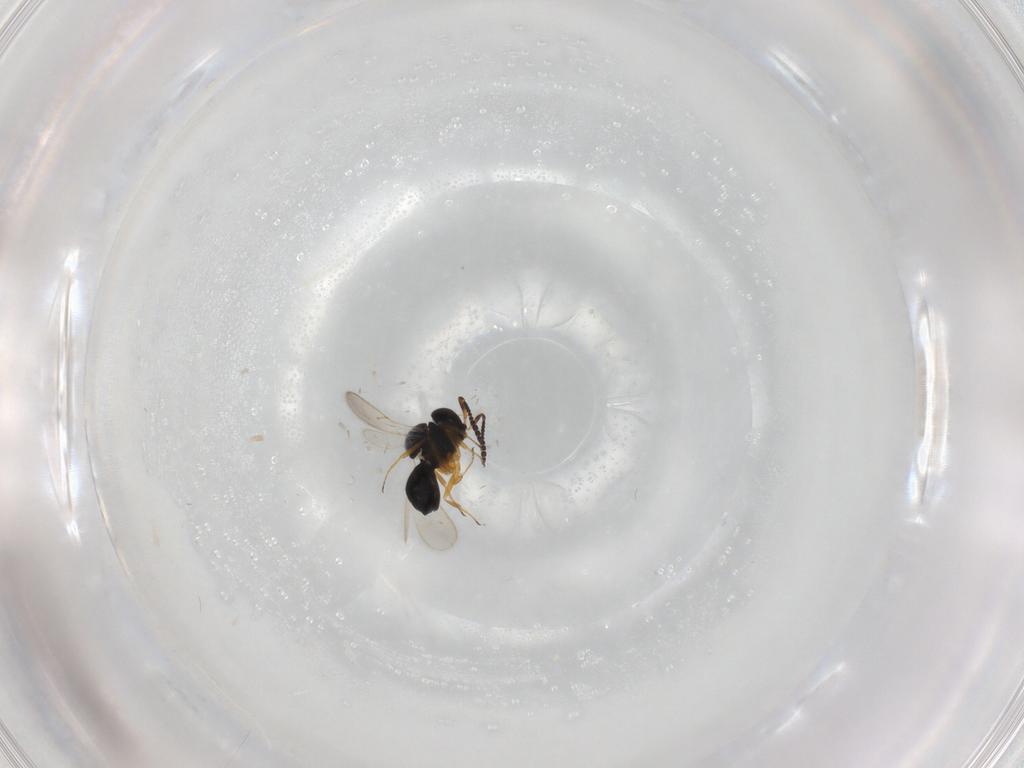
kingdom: Animalia
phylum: Arthropoda
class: Insecta
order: Hymenoptera
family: Scelionidae
